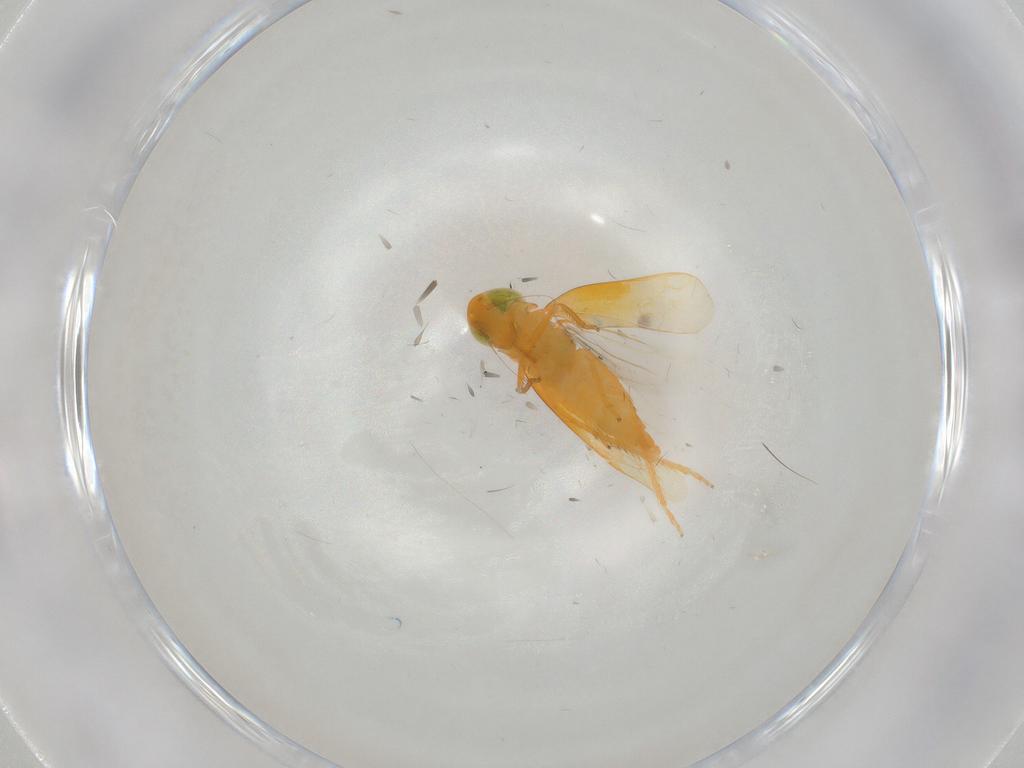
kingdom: Animalia
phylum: Arthropoda
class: Insecta
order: Hemiptera
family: Cicadellidae
